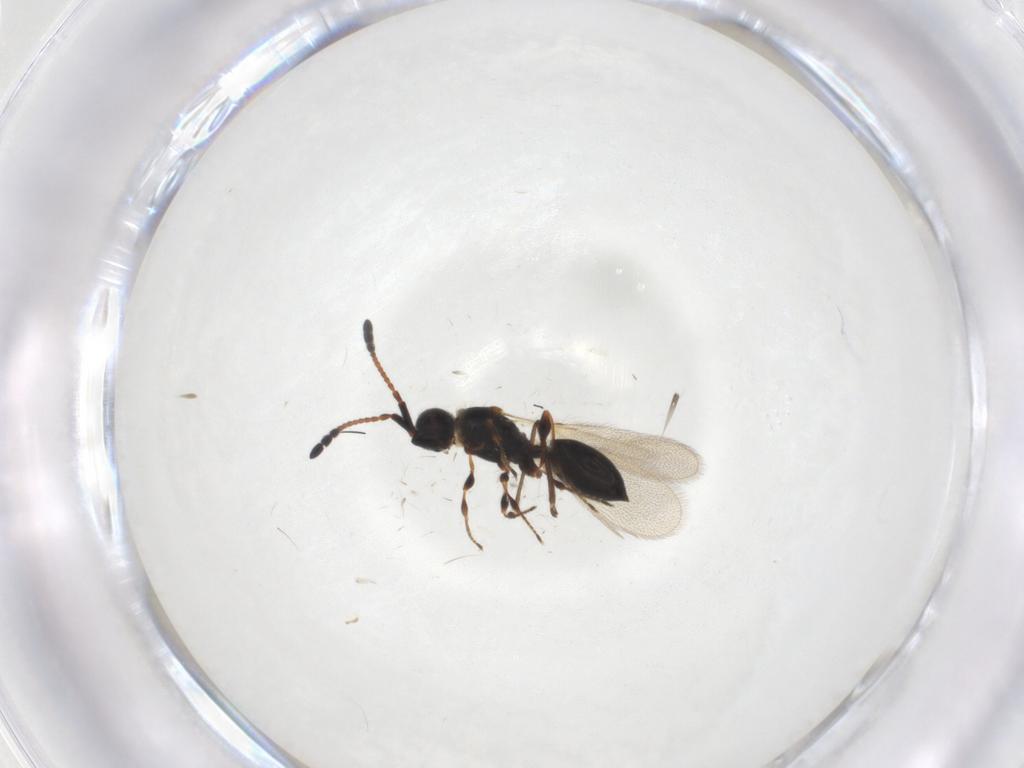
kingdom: Animalia
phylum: Arthropoda
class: Insecta
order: Hymenoptera
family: Diapriidae
